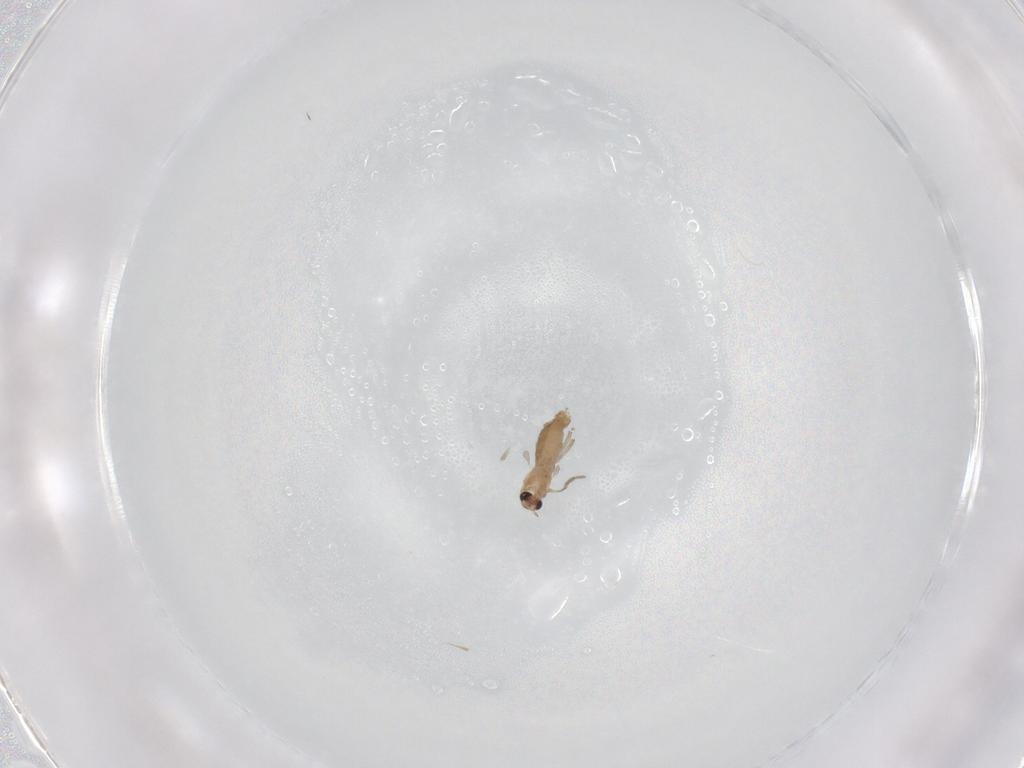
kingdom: Animalia
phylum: Arthropoda
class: Insecta
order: Diptera
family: Chironomidae
